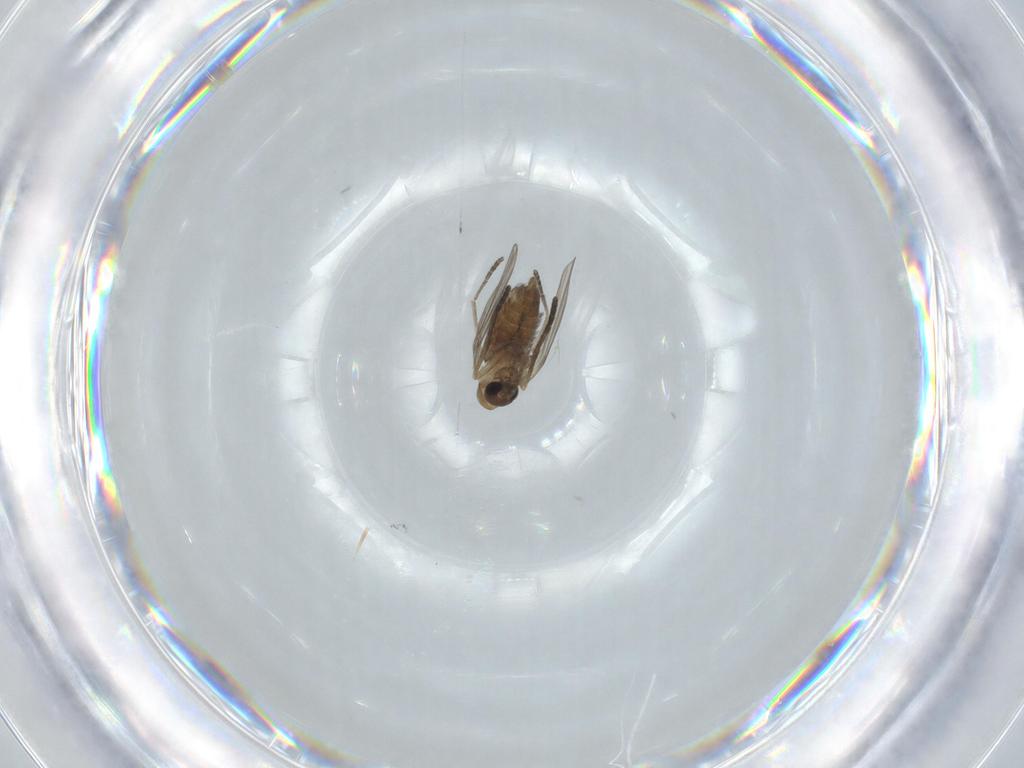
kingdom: Animalia
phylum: Arthropoda
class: Insecta
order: Diptera
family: Psychodidae
